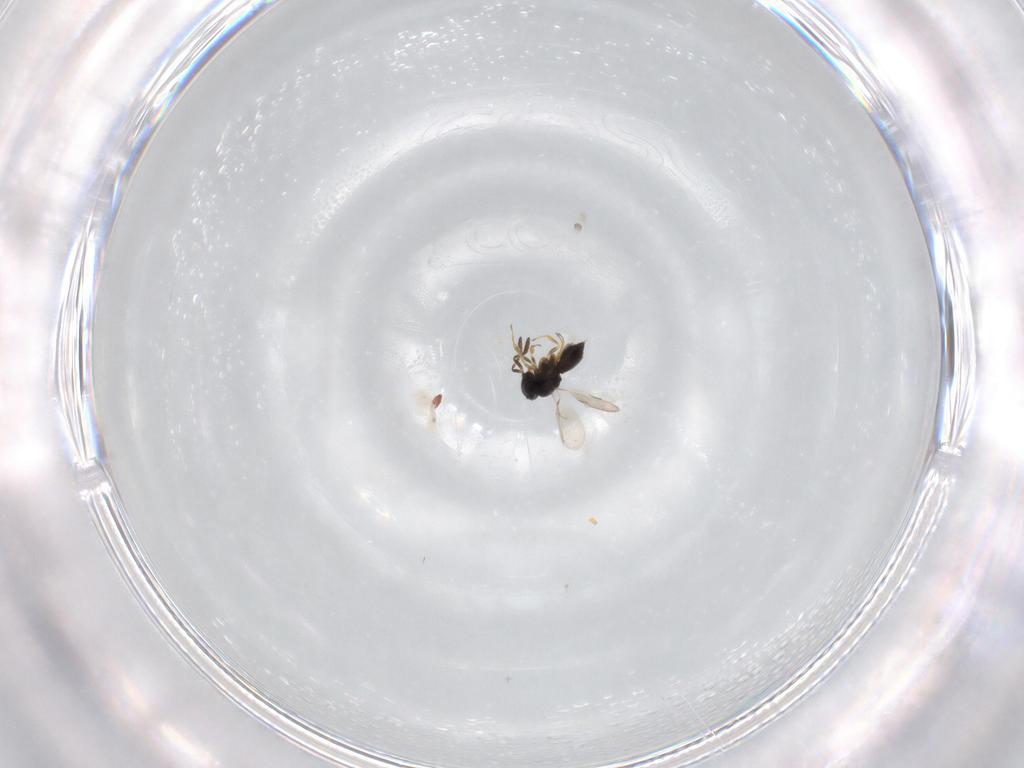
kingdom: Animalia
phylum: Arthropoda
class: Insecta
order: Hymenoptera
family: Scelionidae
